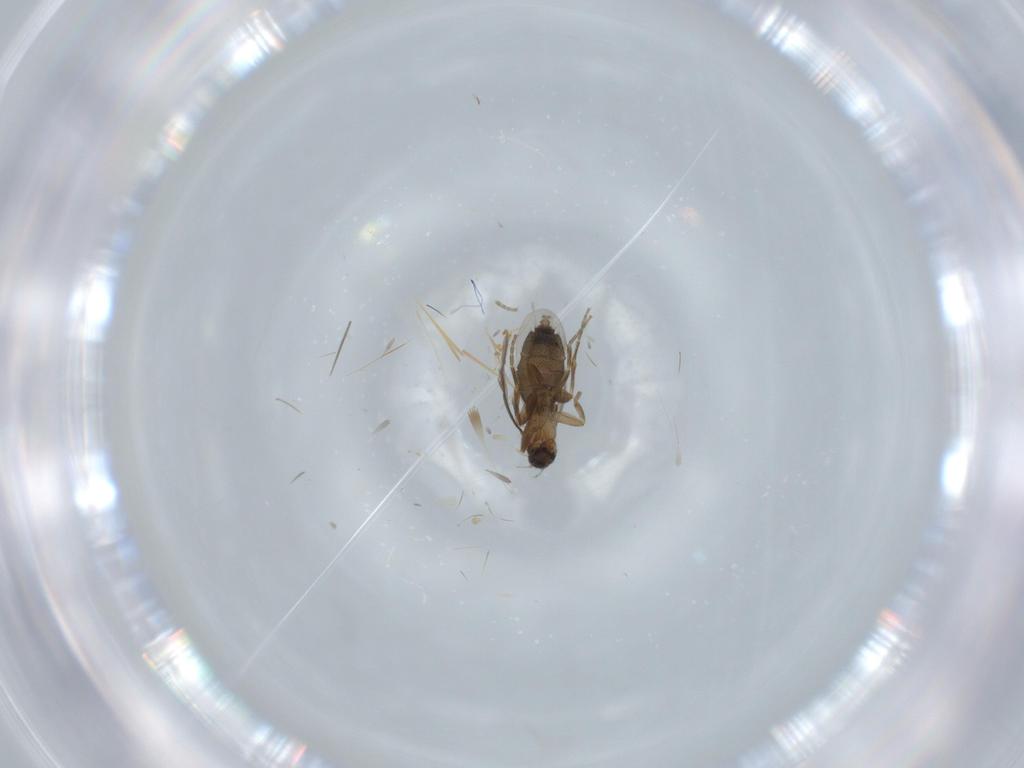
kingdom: Animalia
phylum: Arthropoda
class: Insecta
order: Diptera
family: Phoridae
